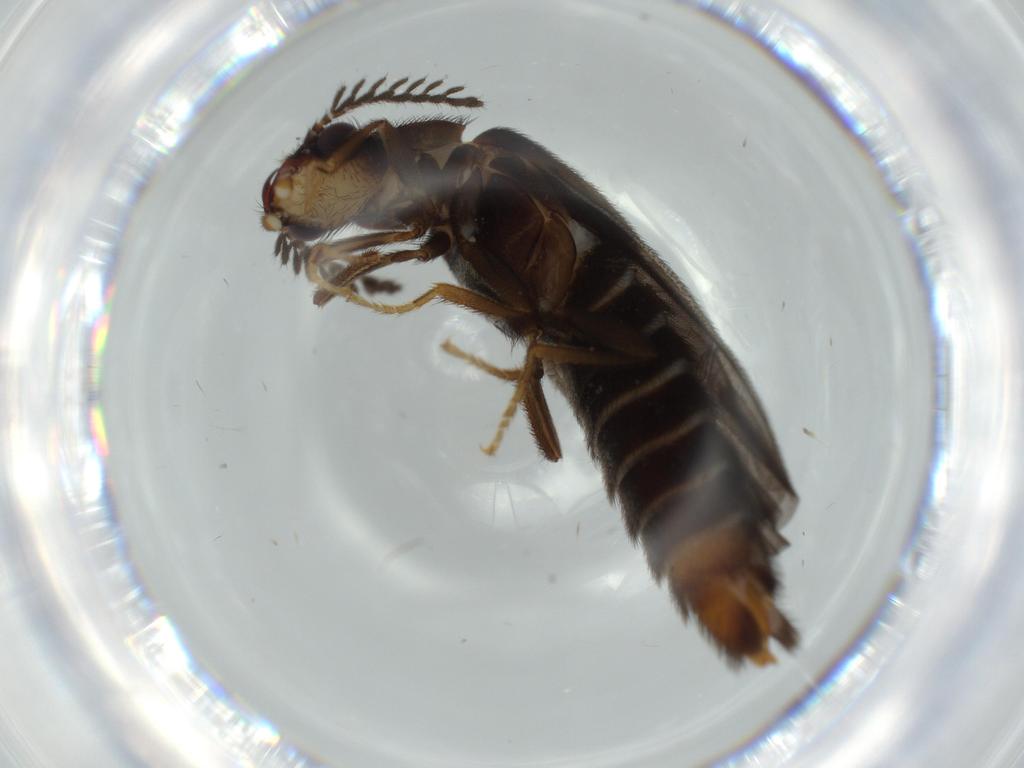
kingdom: Animalia
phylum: Arthropoda
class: Insecta
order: Coleoptera
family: Phengodidae
